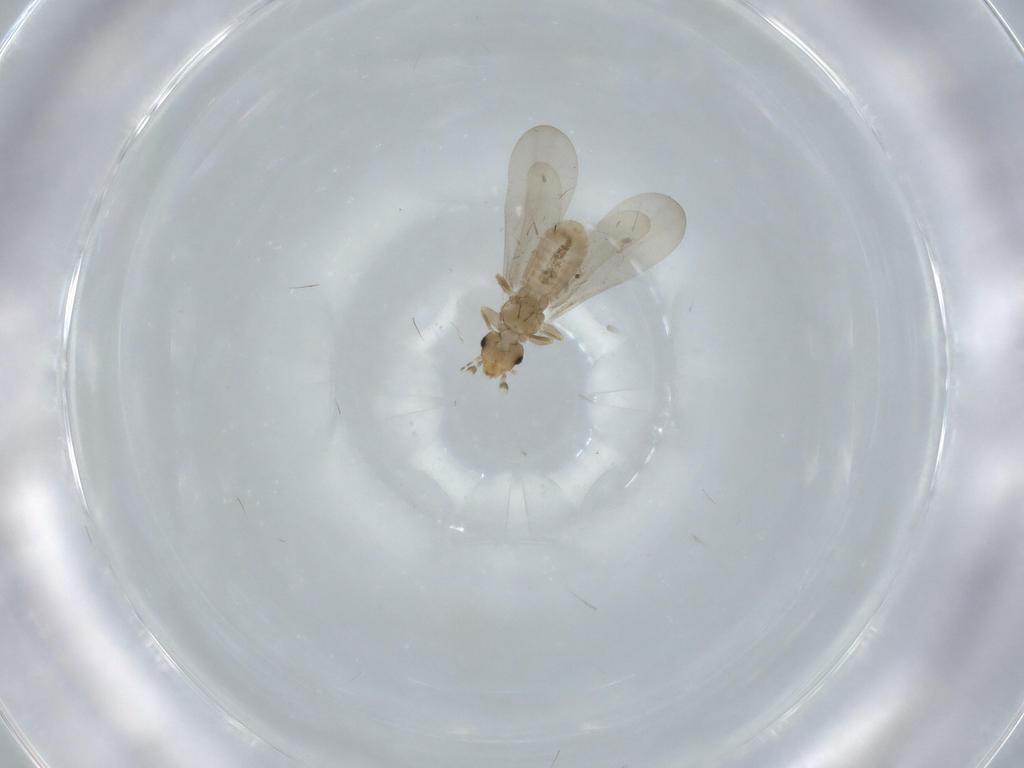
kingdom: Animalia
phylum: Arthropoda
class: Insecta
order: Psocodea
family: Liposcelididae
